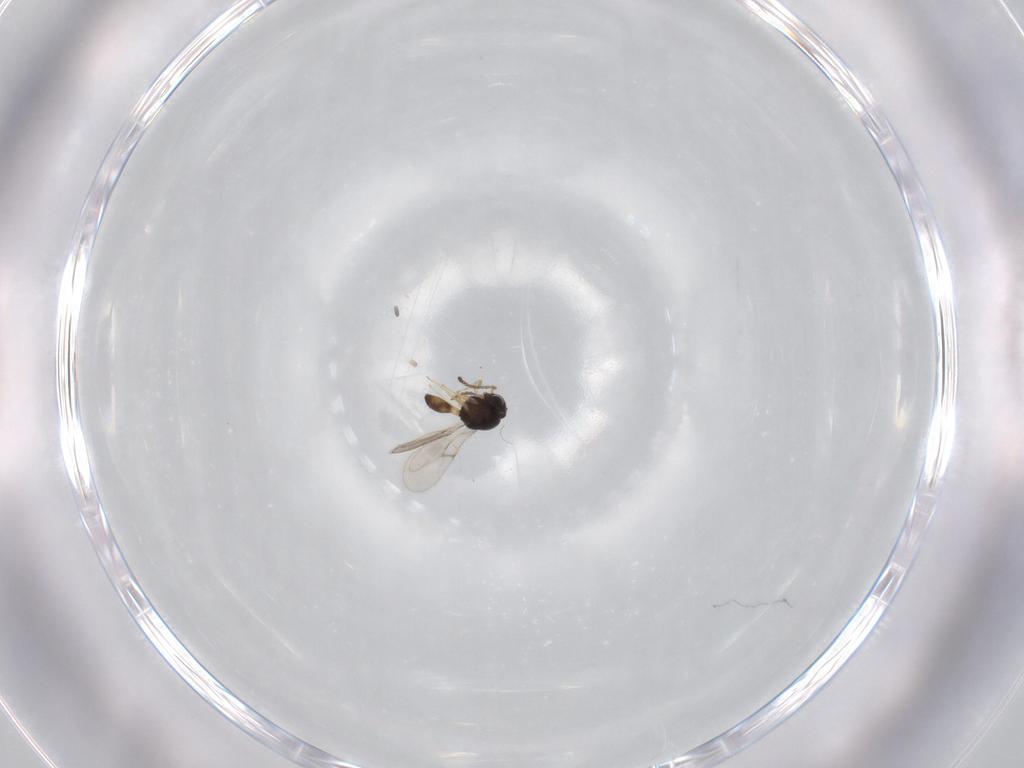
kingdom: Animalia
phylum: Arthropoda
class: Insecta
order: Hymenoptera
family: Scelionidae
